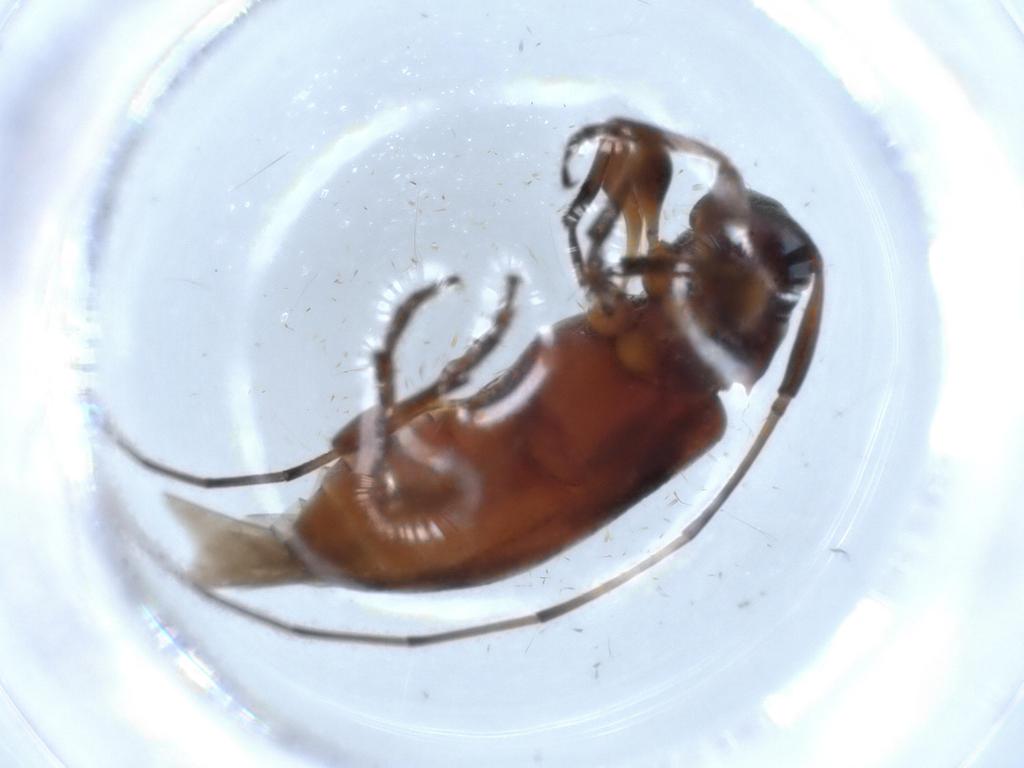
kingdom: Animalia
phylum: Arthropoda
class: Insecta
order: Coleoptera
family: Cerambycidae
